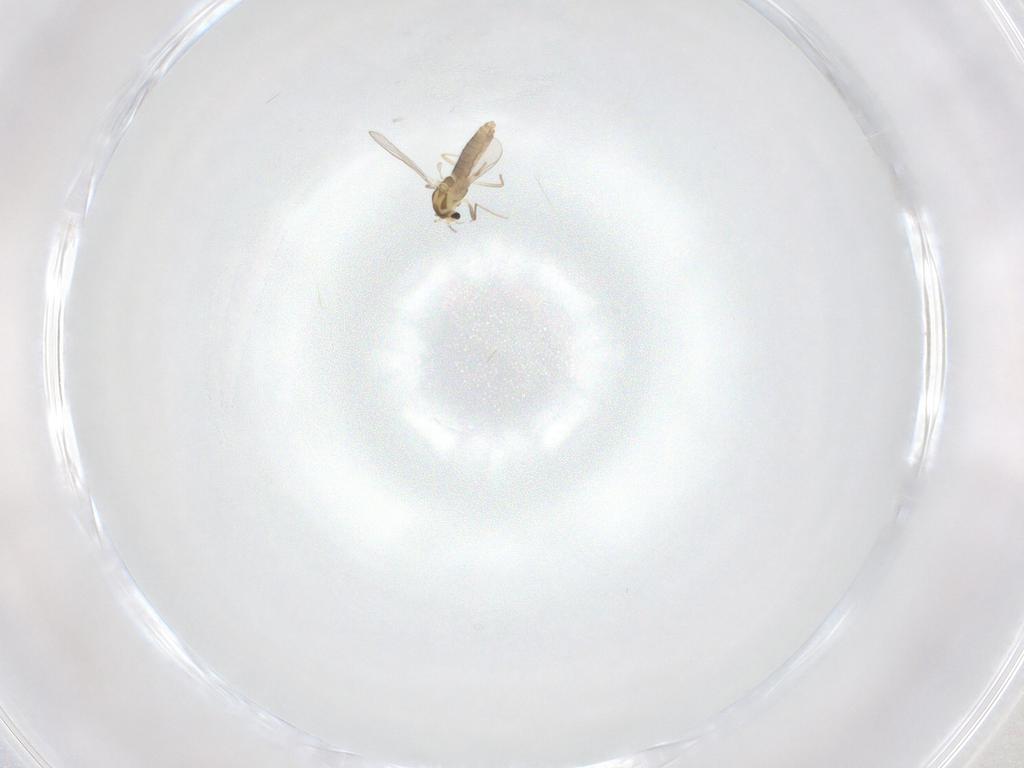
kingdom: Animalia
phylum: Arthropoda
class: Insecta
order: Diptera
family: Chironomidae
